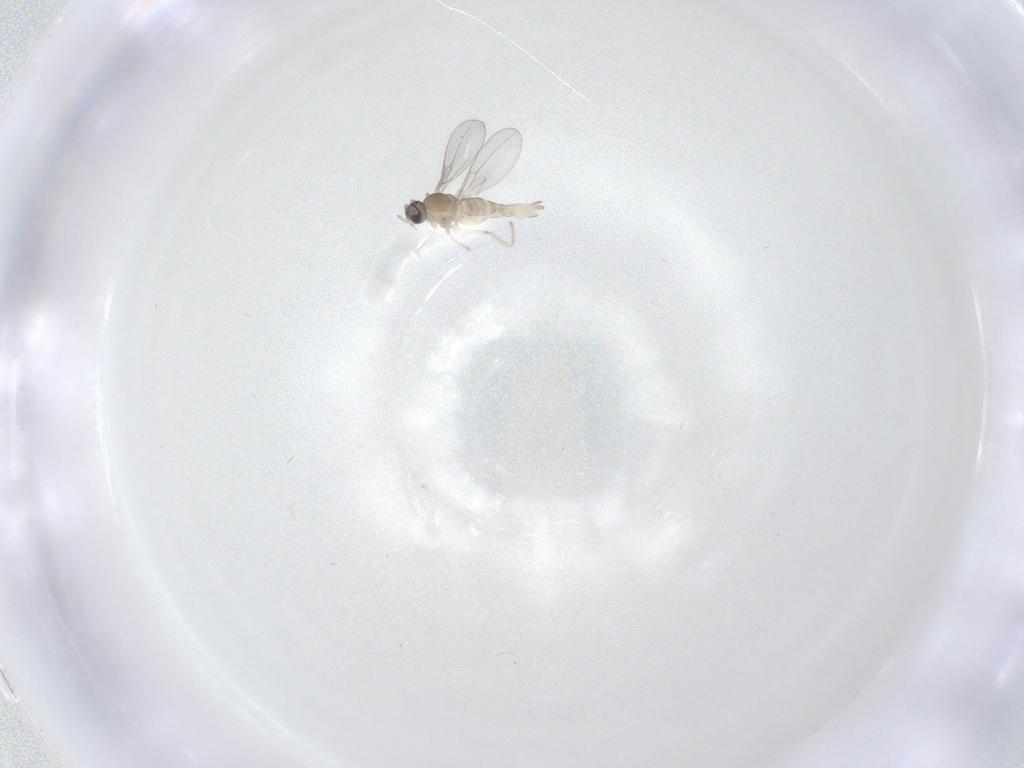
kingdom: Animalia
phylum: Arthropoda
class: Insecta
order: Diptera
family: Cecidomyiidae
